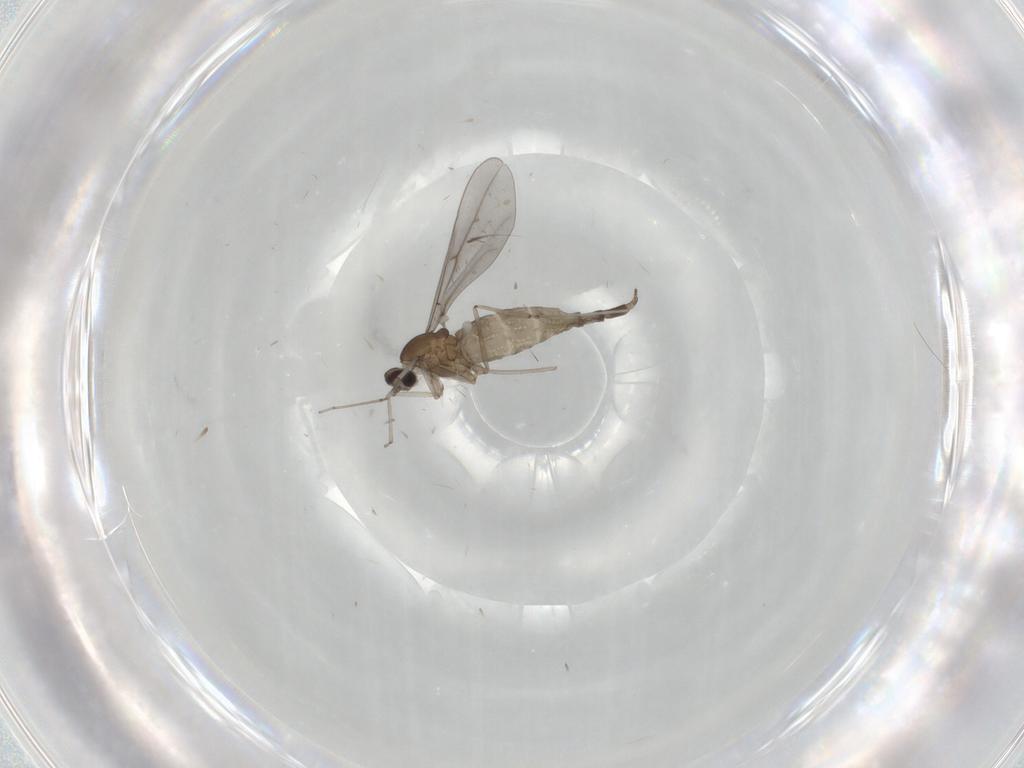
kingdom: Animalia
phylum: Arthropoda
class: Insecta
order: Diptera
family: Cecidomyiidae
